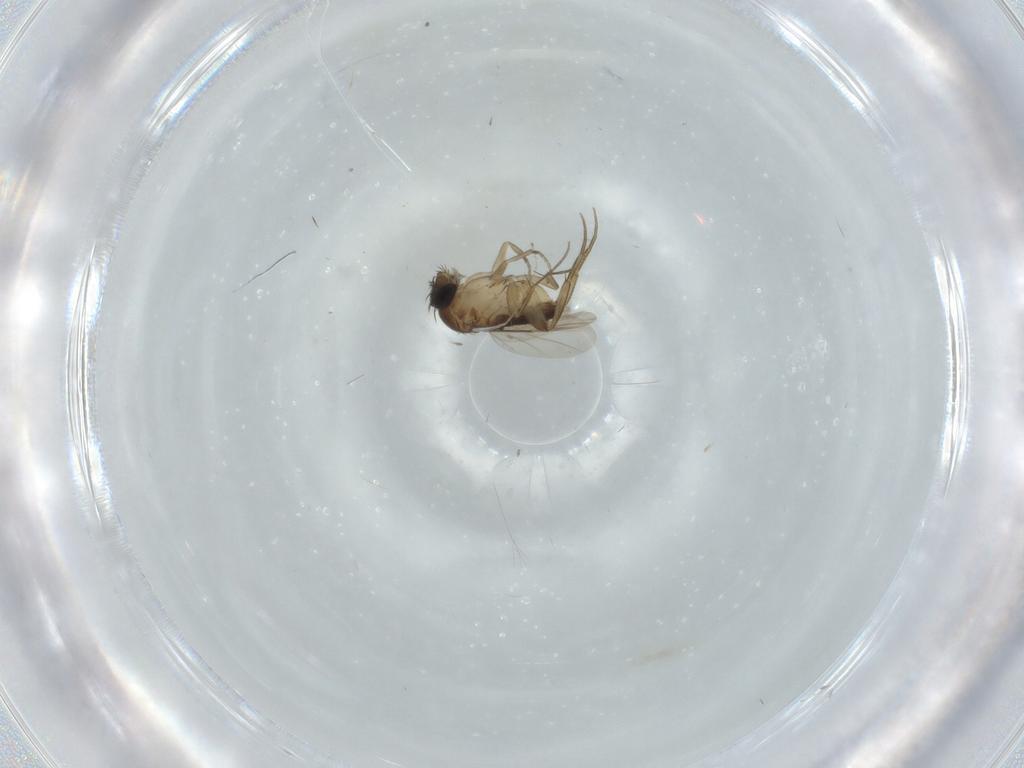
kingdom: Animalia
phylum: Arthropoda
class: Insecta
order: Diptera
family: Phoridae
